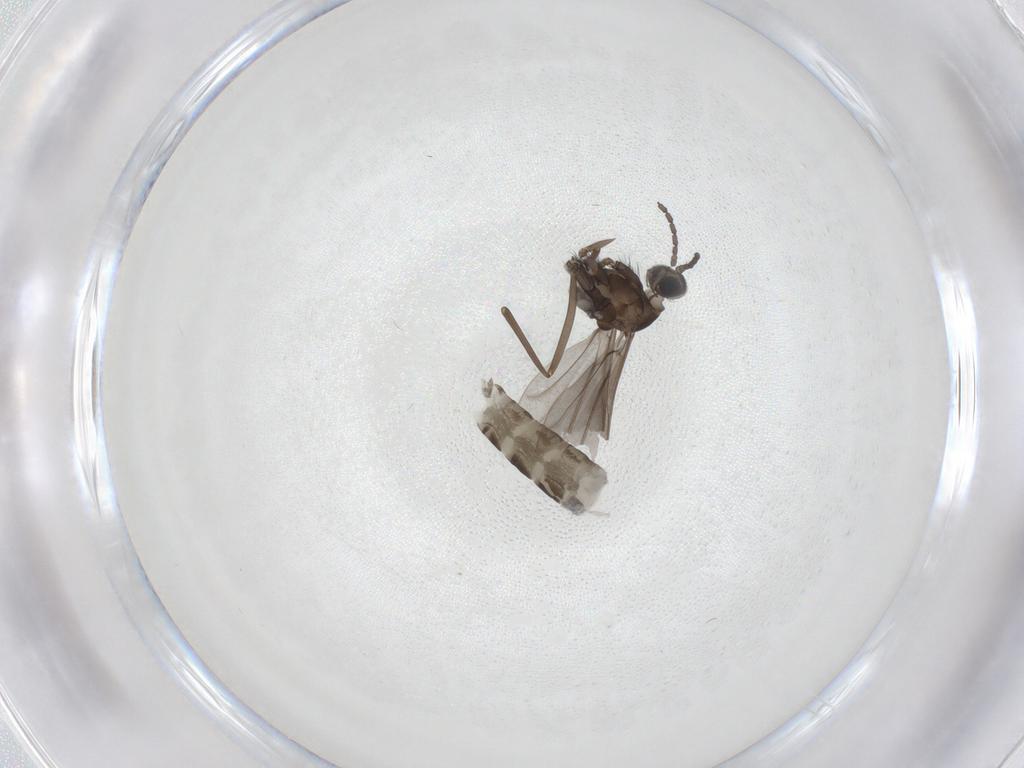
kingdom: Animalia
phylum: Arthropoda
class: Insecta
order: Diptera
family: Cecidomyiidae
